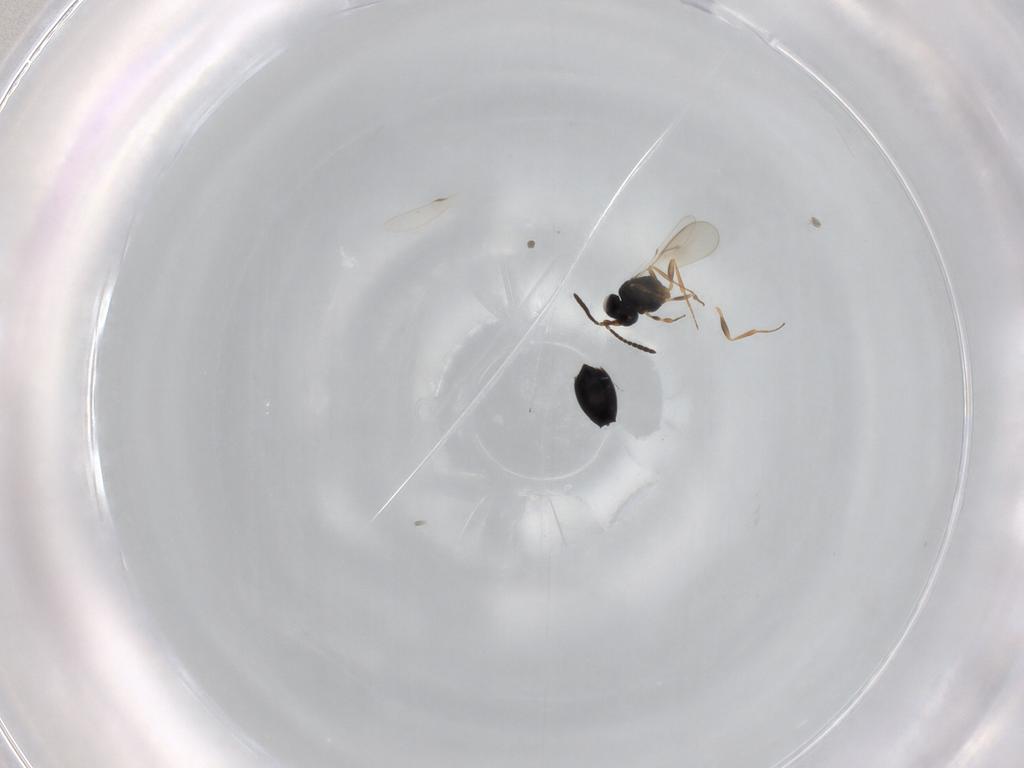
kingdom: Animalia
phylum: Arthropoda
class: Insecta
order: Hymenoptera
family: Scelionidae
